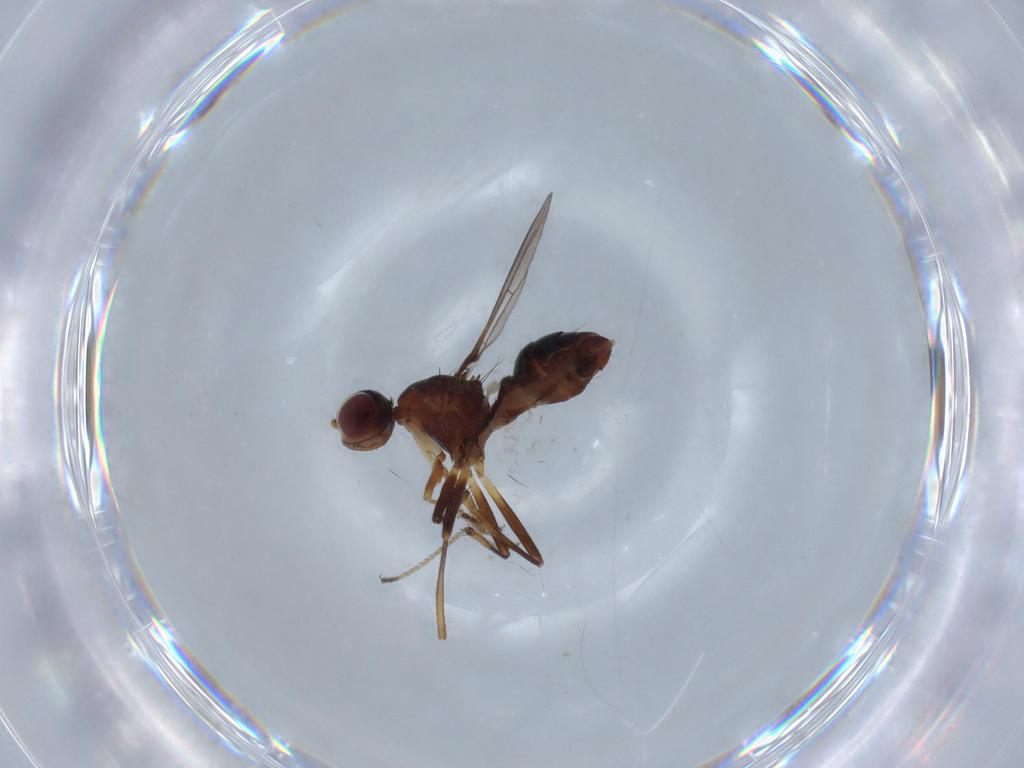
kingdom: Animalia
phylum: Arthropoda
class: Insecta
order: Diptera
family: Sepsidae
